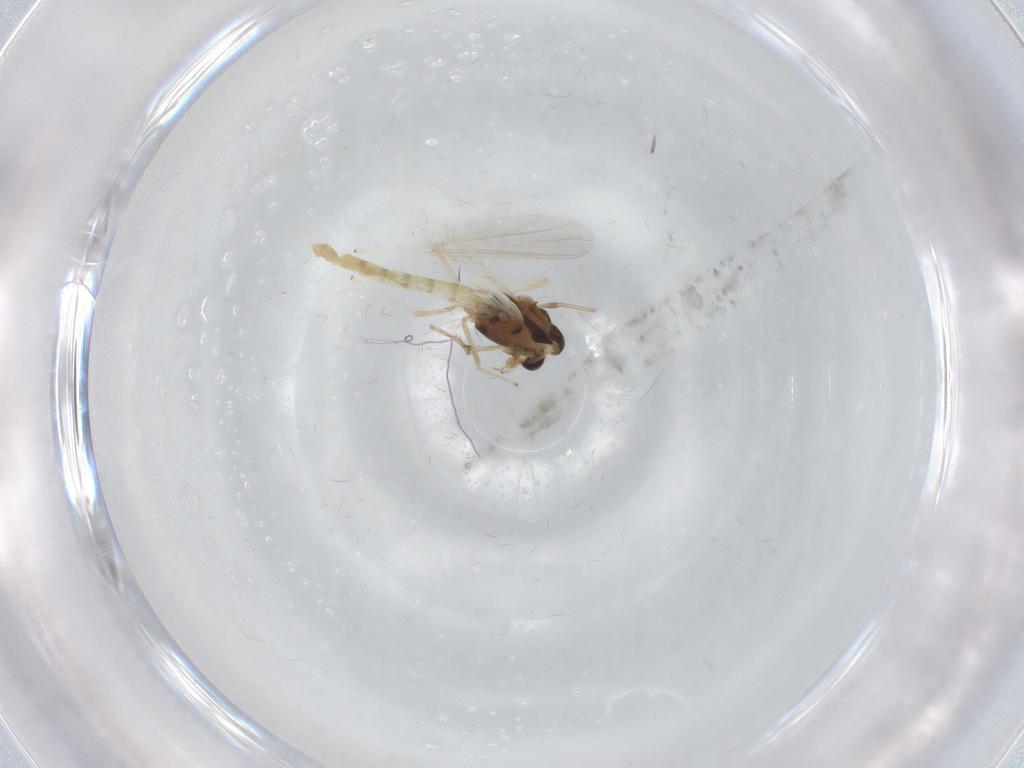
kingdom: Animalia
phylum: Arthropoda
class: Insecta
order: Diptera
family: Chironomidae
